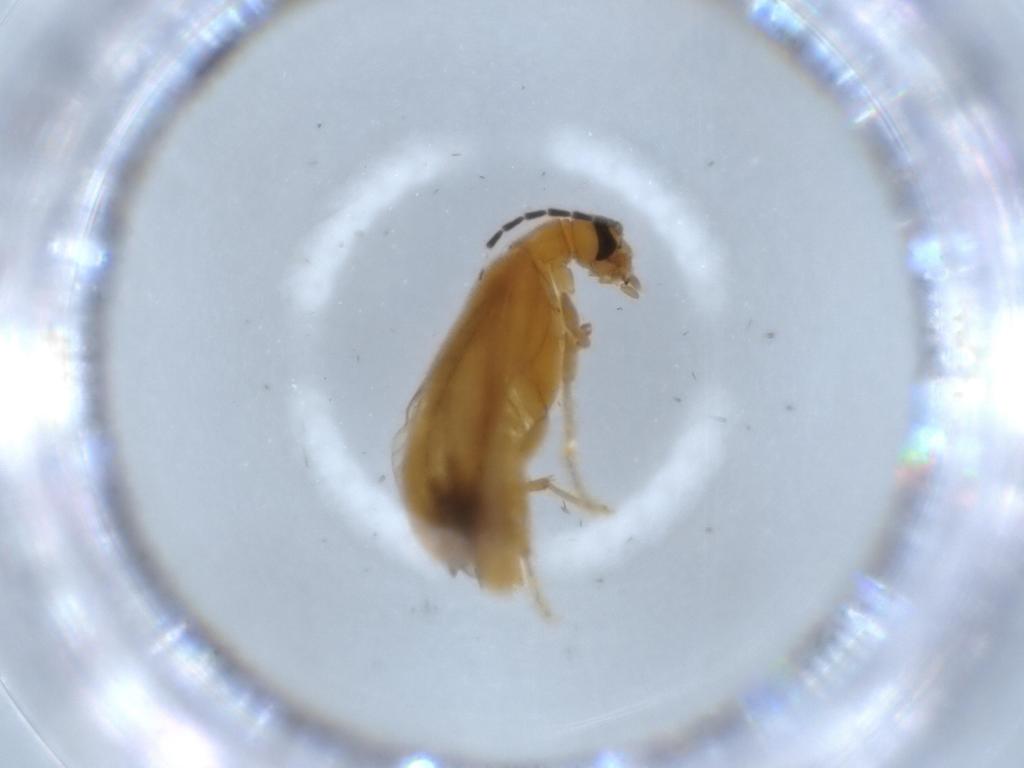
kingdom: Animalia
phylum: Arthropoda
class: Insecta
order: Coleoptera
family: Scraptiidae
